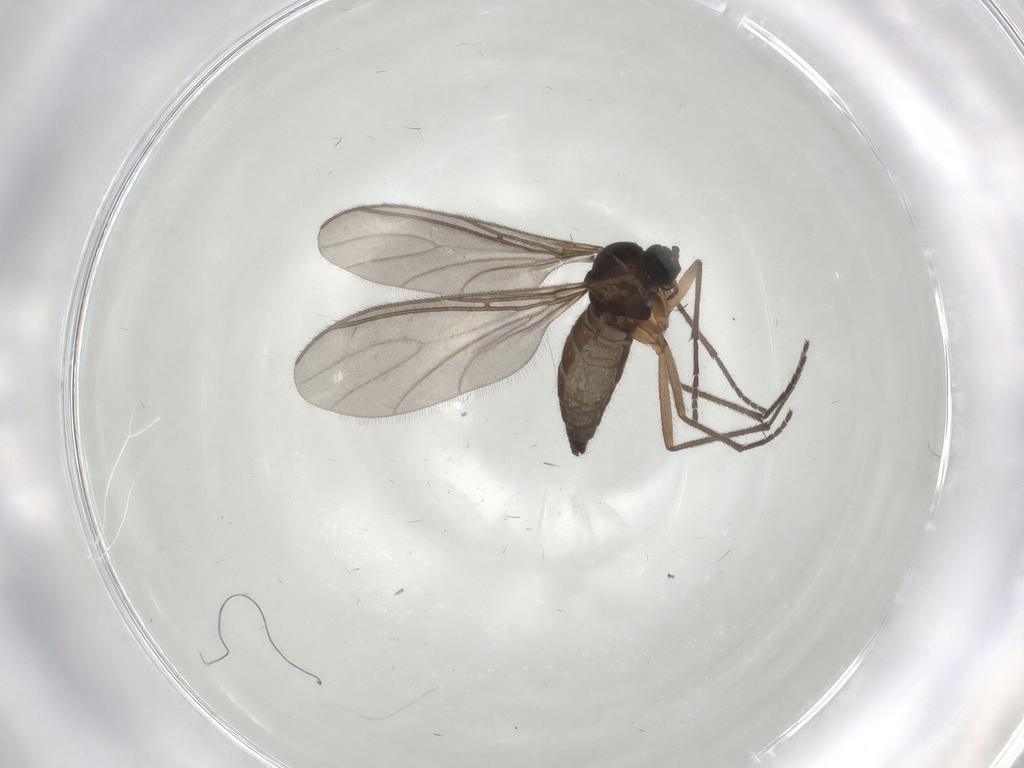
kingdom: Animalia
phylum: Arthropoda
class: Insecta
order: Diptera
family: Sciaridae
